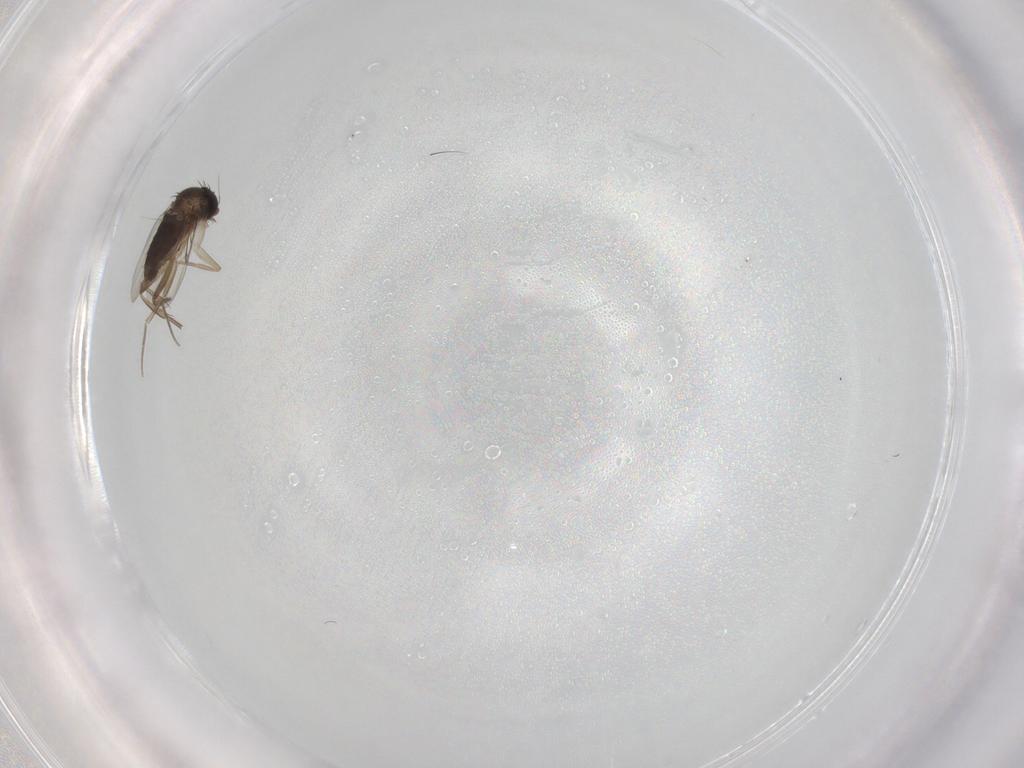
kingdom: Animalia
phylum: Arthropoda
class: Insecta
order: Diptera
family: Phoridae
